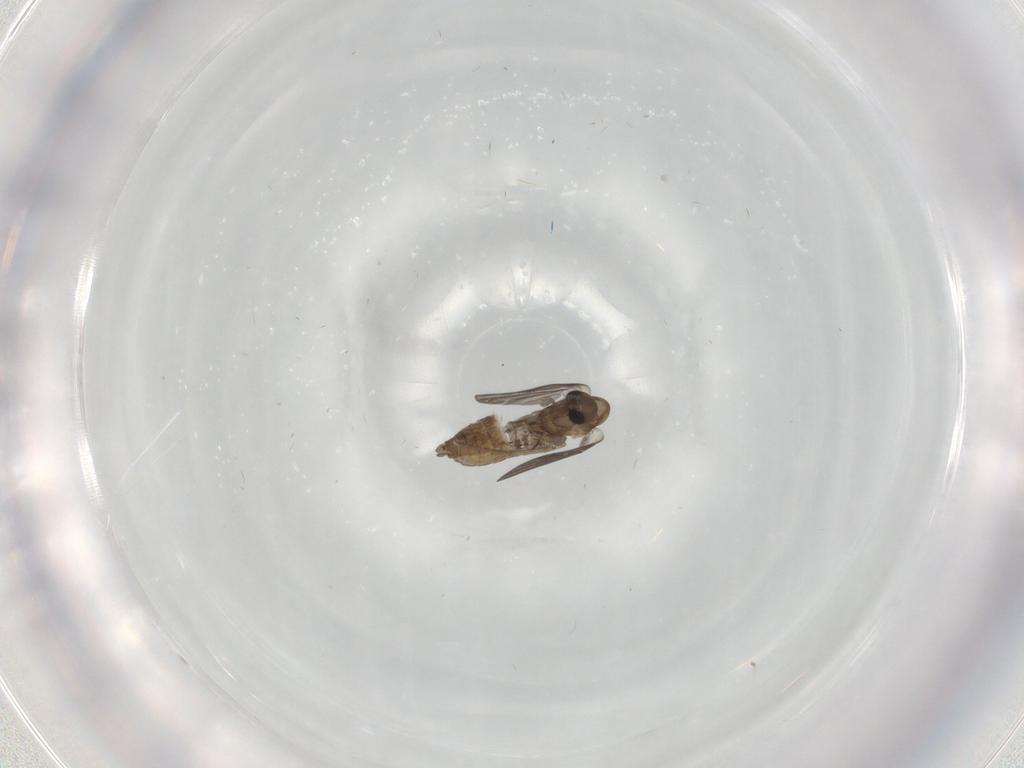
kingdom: Animalia
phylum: Arthropoda
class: Insecta
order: Diptera
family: Psychodidae
